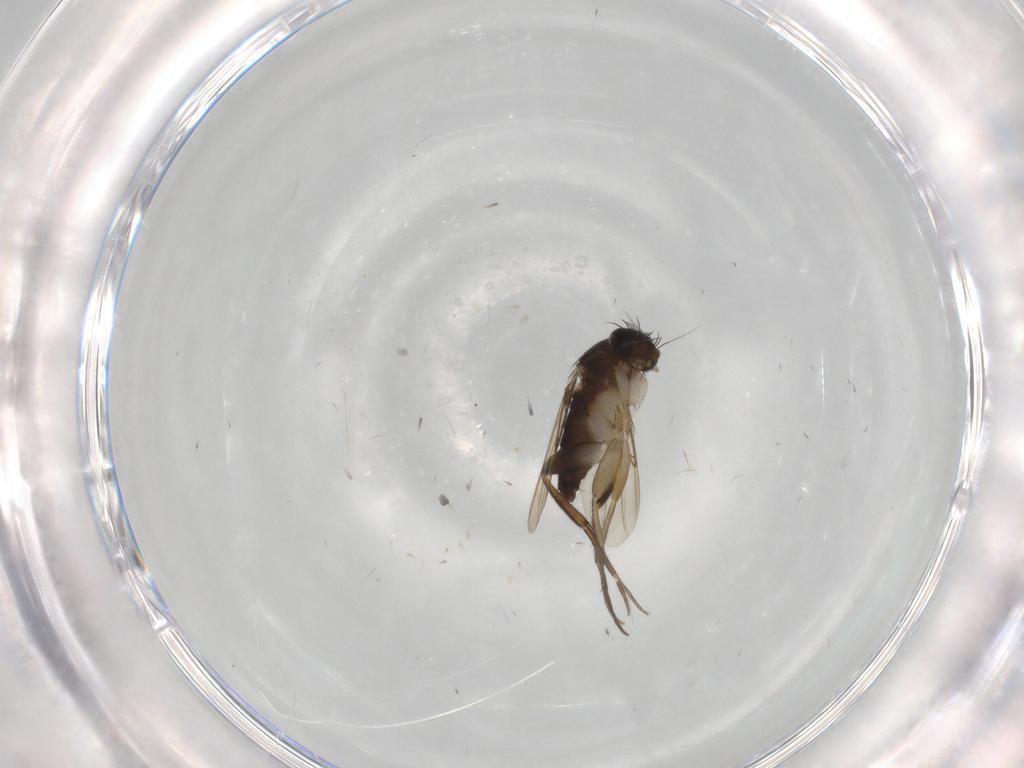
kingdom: Animalia
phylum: Arthropoda
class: Insecta
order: Diptera
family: Phoridae
